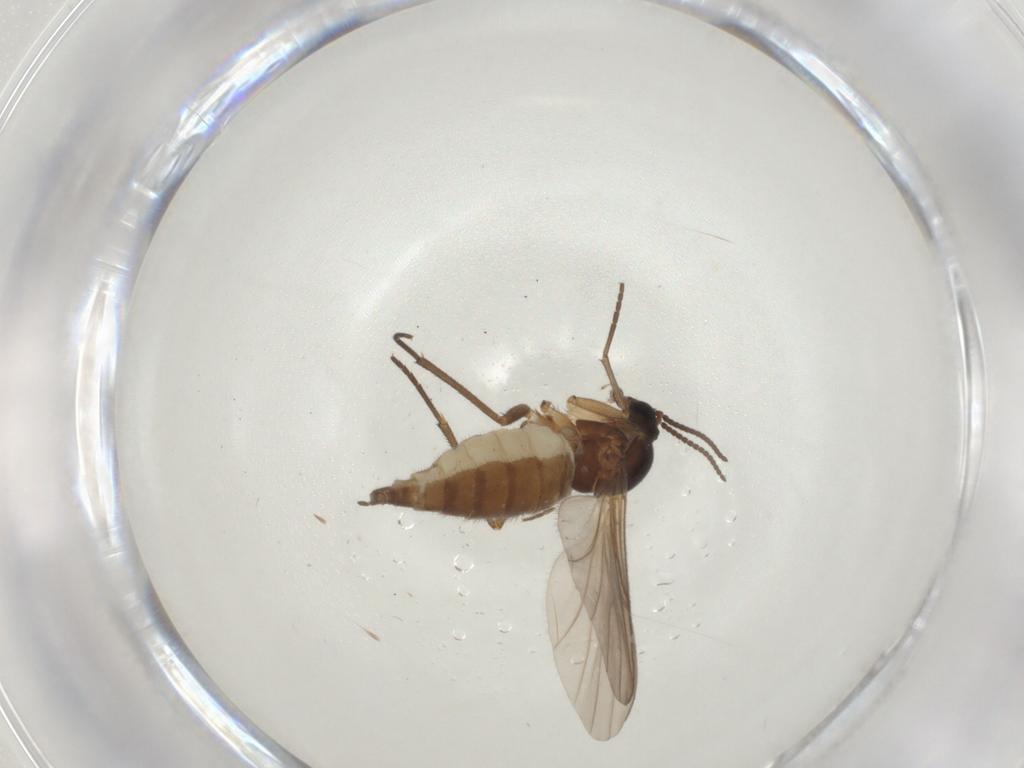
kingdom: Animalia
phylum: Arthropoda
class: Insecta
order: Diptera
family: Sciaridae
